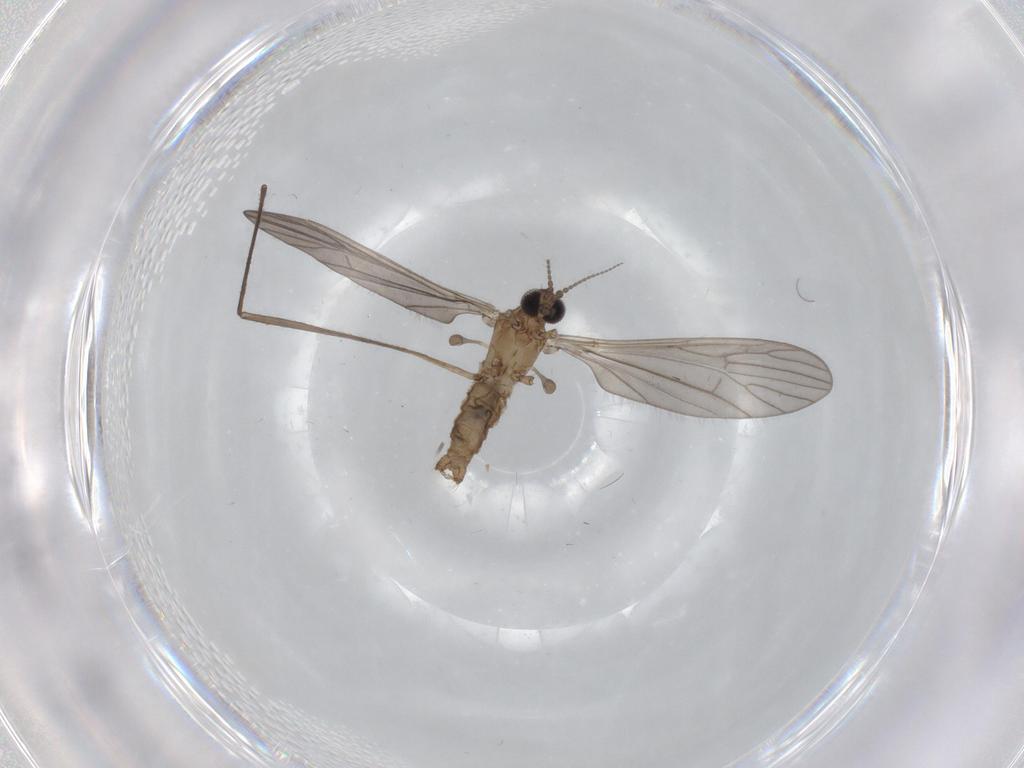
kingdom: Animalia
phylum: Arthropoda
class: Insecta
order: Diptera
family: Limoniidae
